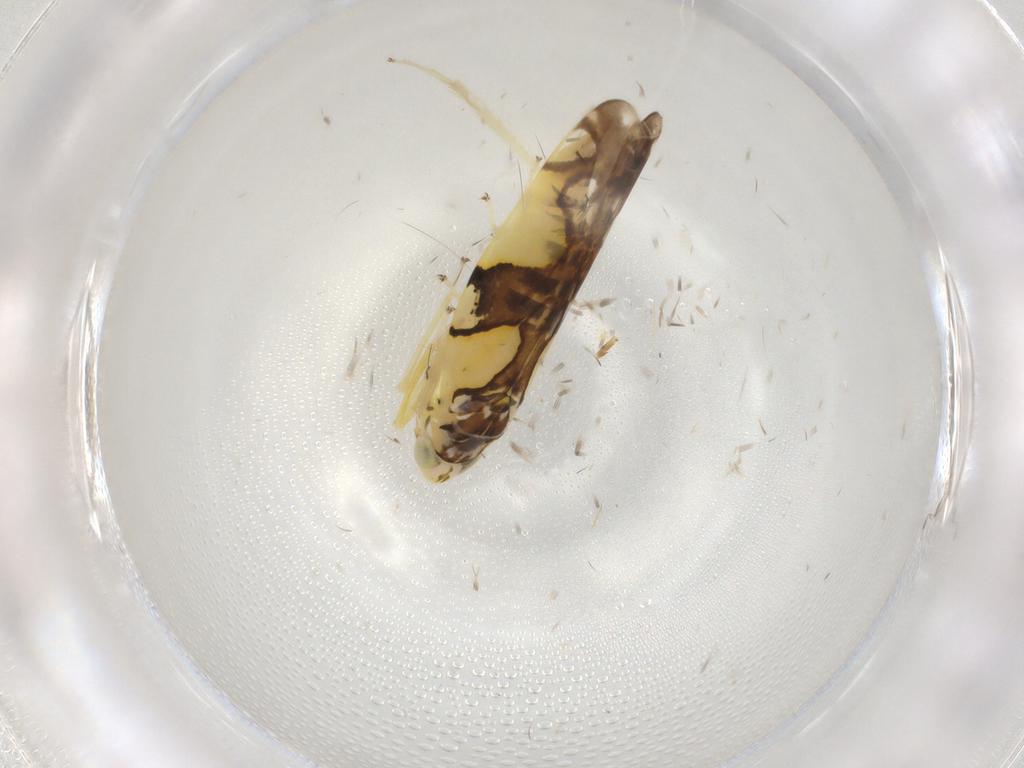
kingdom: Animalia
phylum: Arthropoda
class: Insecta
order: Hemiptera
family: Cicadellidae
